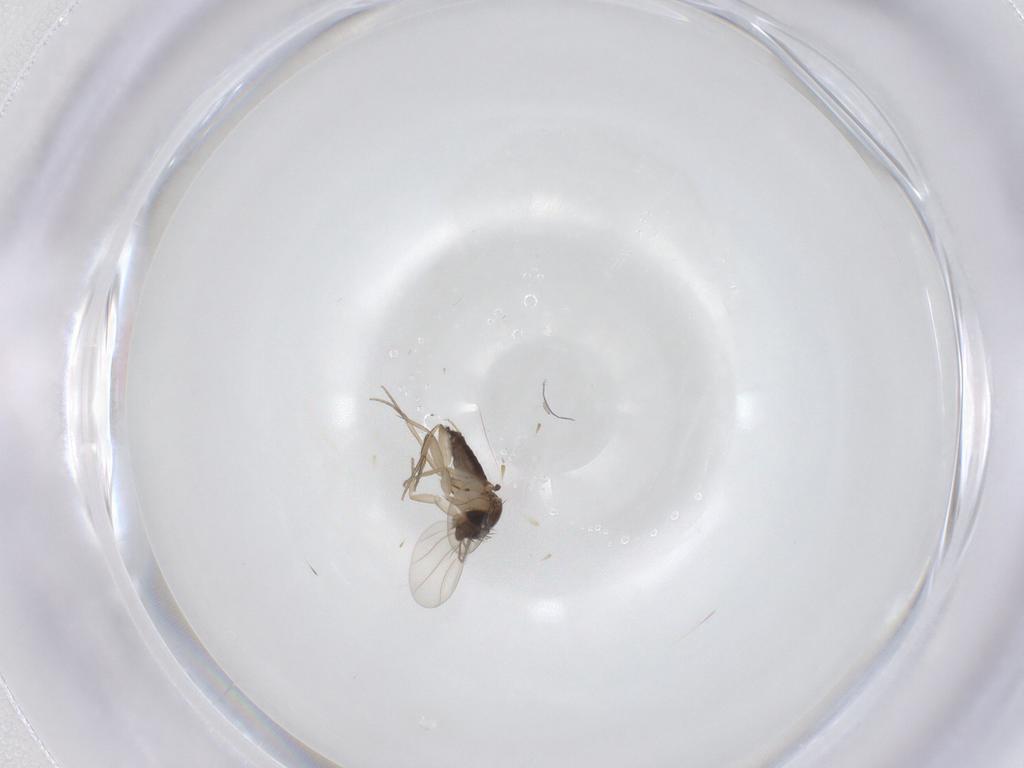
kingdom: Animalia
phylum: Arthropoda
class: Insecta
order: Diptera
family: Phoridae
